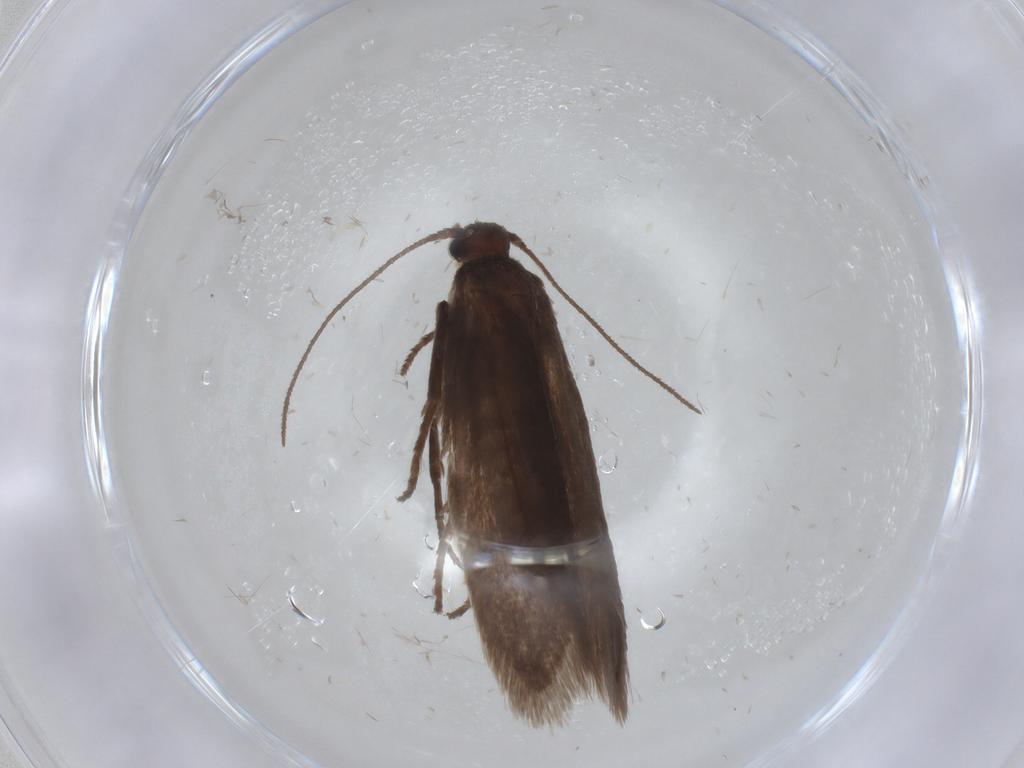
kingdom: Animalia
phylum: Arthropoda
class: Insecta
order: Lepidoptera
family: Limacodidae
